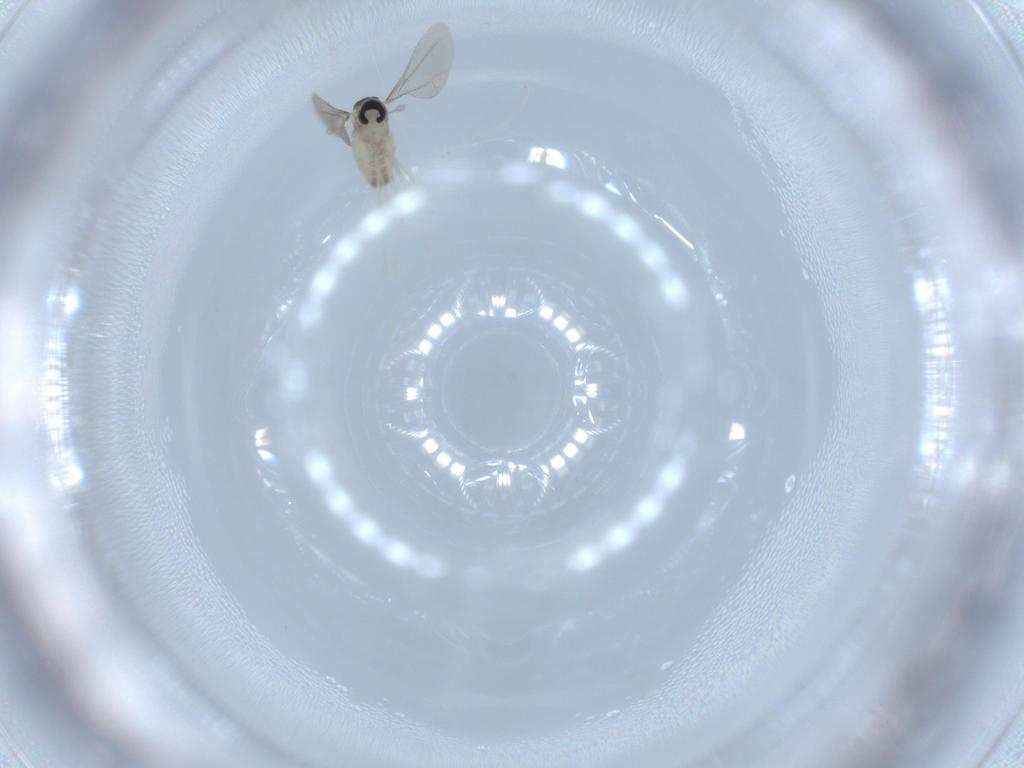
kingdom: Animalia
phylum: Arthropoda
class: Insecta
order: Diptera
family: Cecidomyiidae
